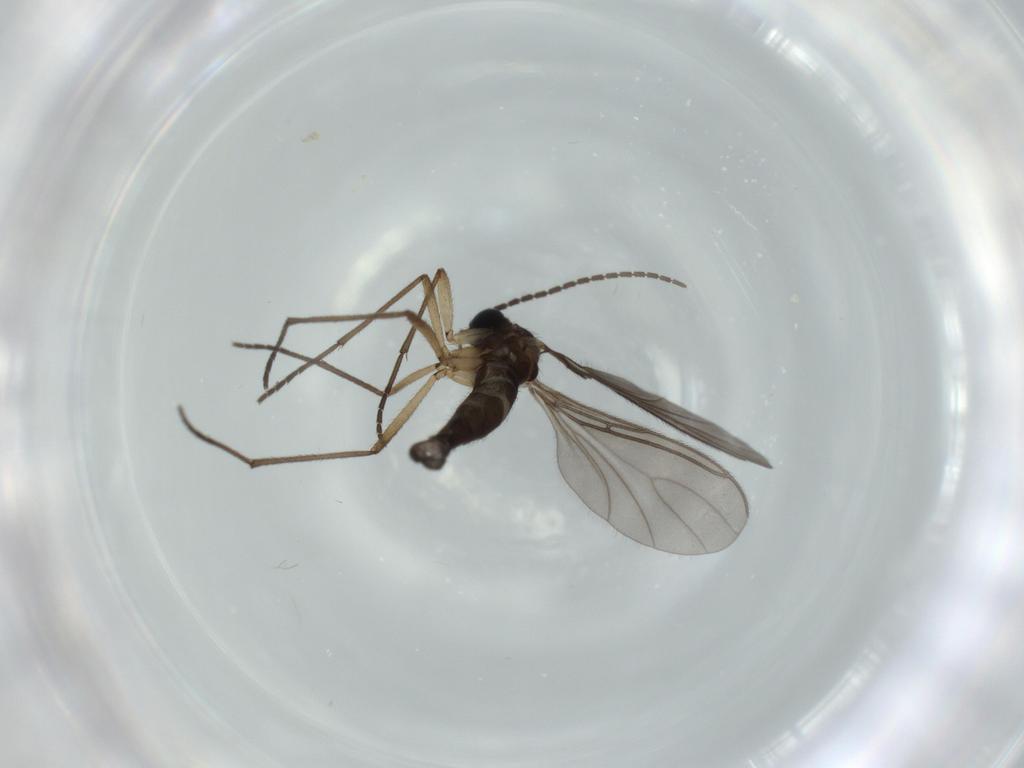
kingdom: Animalia
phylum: Arthropoda
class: Insecta
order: Diptera
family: Sciaridae
